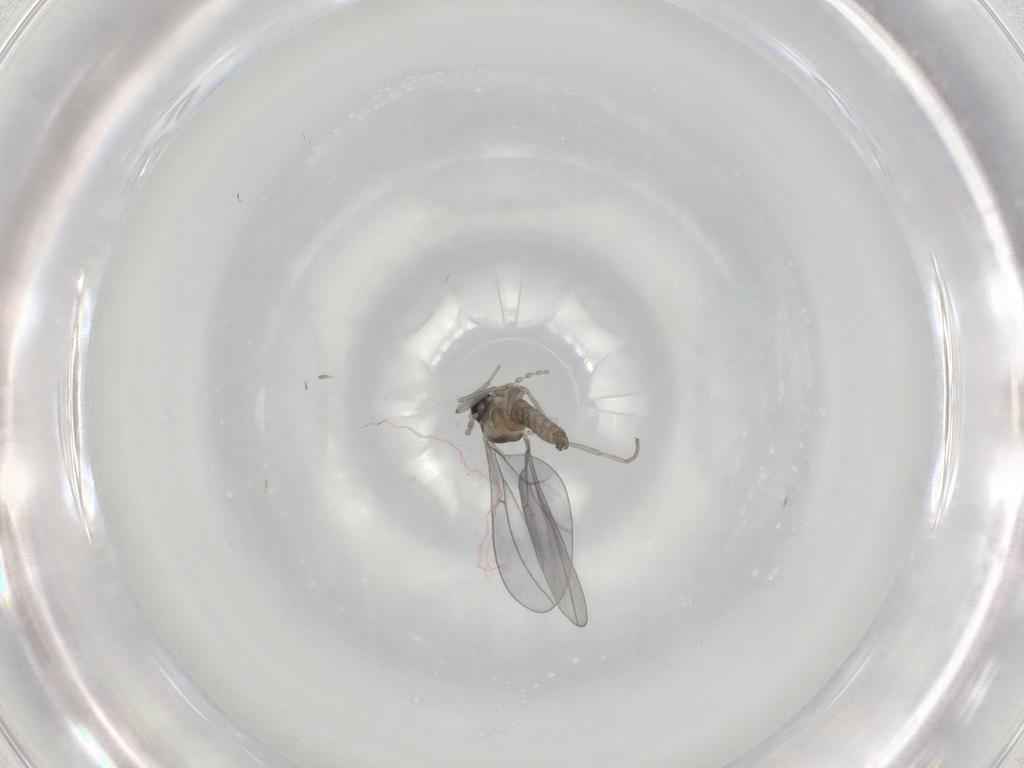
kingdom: Animalia
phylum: Arthropoda
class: Insecta
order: Diptera
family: Cecidomyiidae
